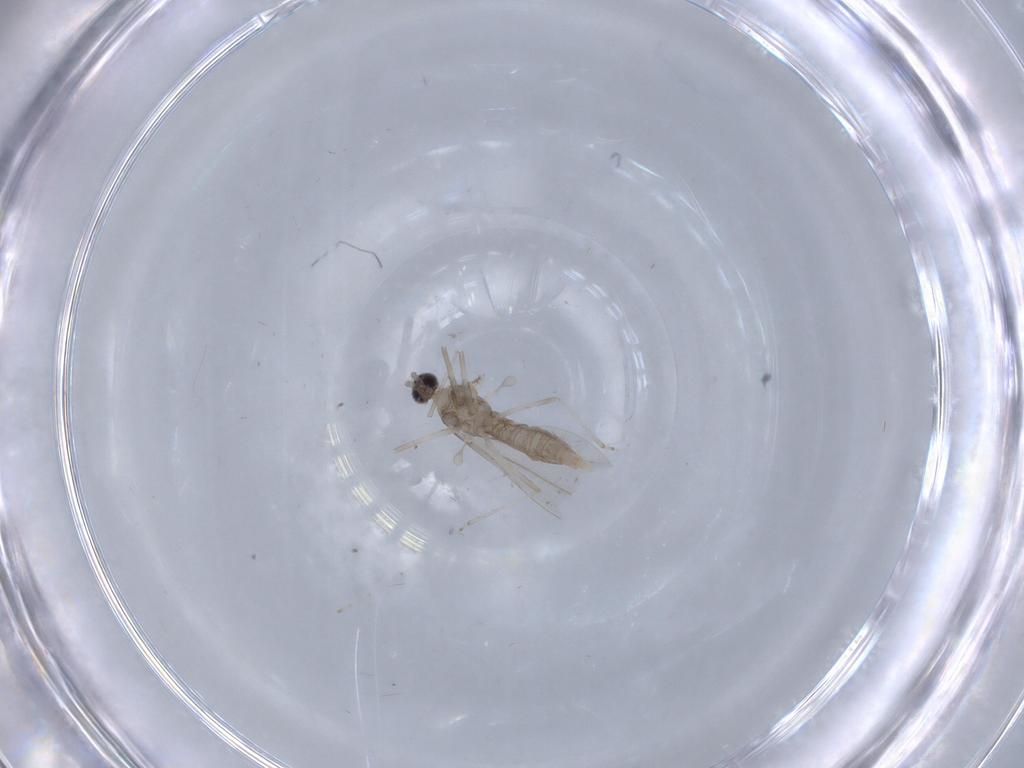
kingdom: Animalia
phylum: Arthropoda
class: Insecta
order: Diptera
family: Cecidomyiidae
